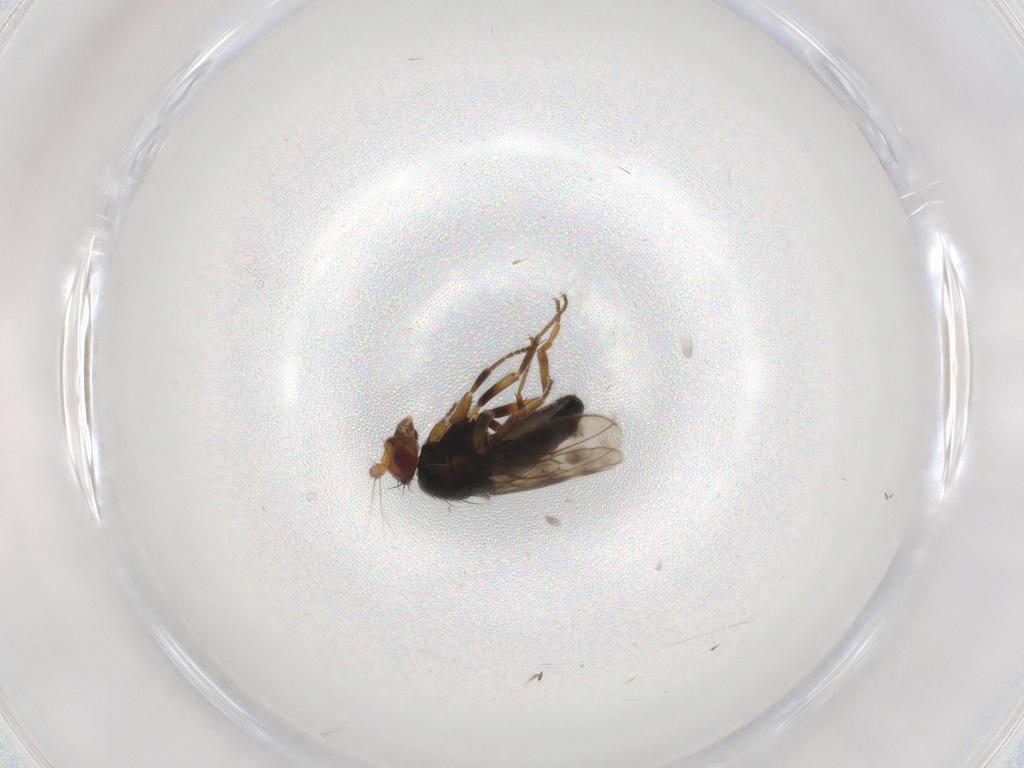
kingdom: Animalia
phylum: Arthropoda
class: Insecta
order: Diptera
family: Sphaeroceridae
